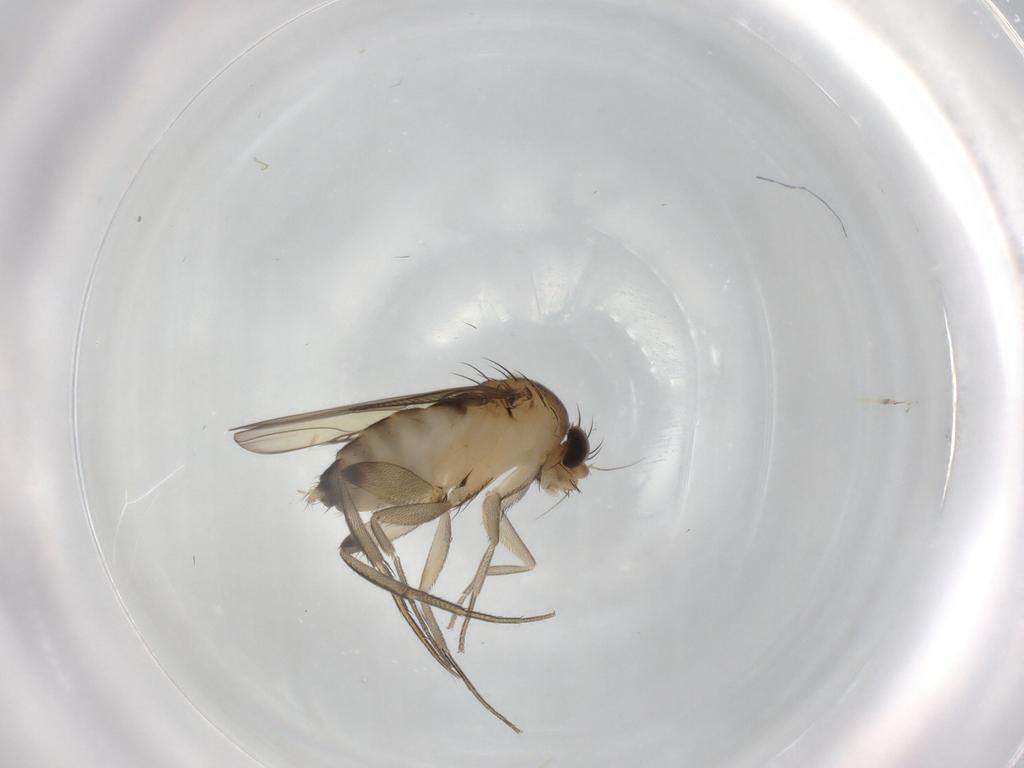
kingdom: Animalia
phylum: Arthropoda
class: Insecta
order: Diptera
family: Phoridae
